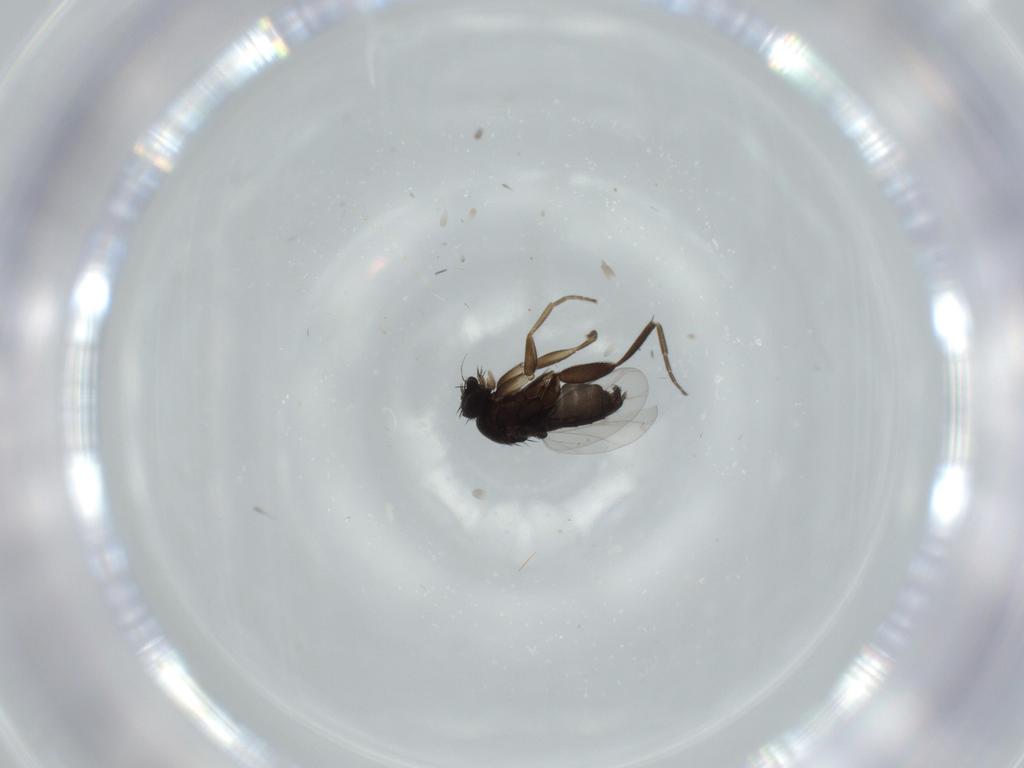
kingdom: Animalia
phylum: Arthropoda
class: Insecta
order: Diptera
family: Phoridae
